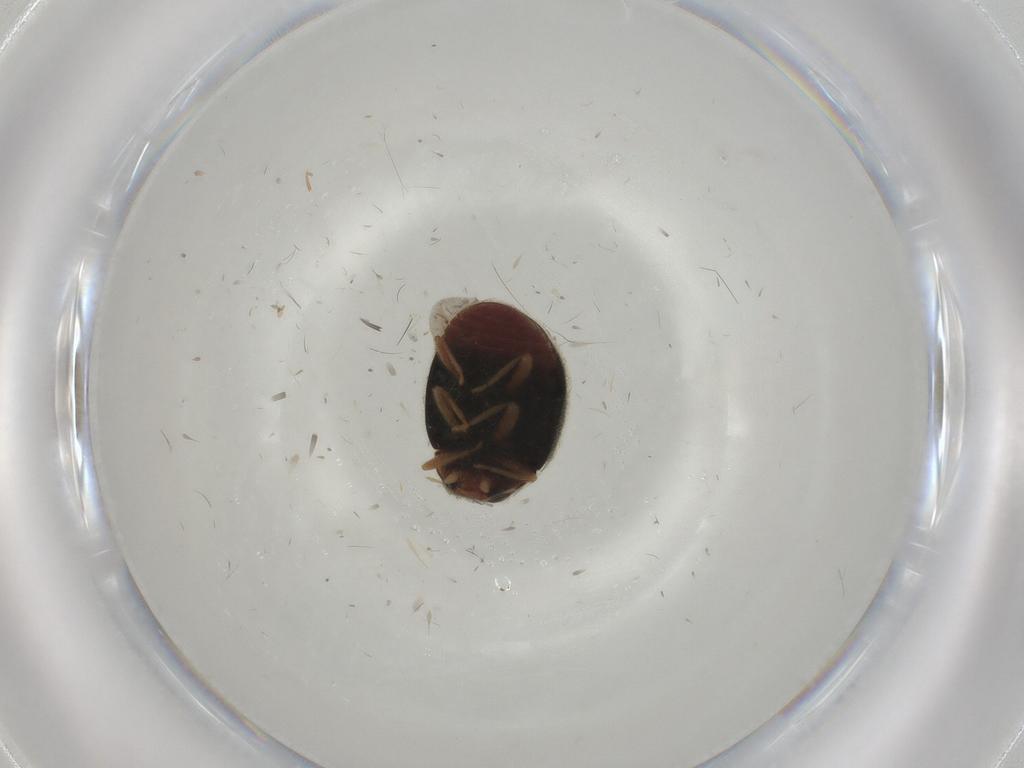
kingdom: Animalia
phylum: Arthropoda
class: Insecta
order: Coleoptera
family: Coccinellidae
